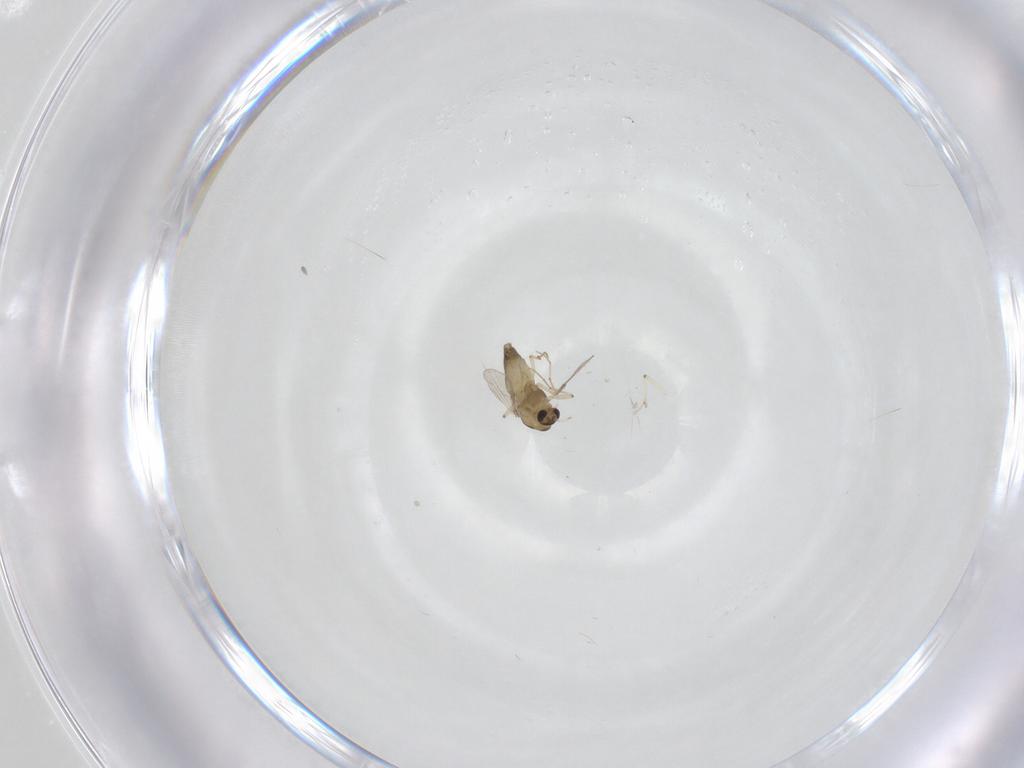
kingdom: Animalia
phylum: Arthropoda
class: Insecta
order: Diptera
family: Chironomidae
